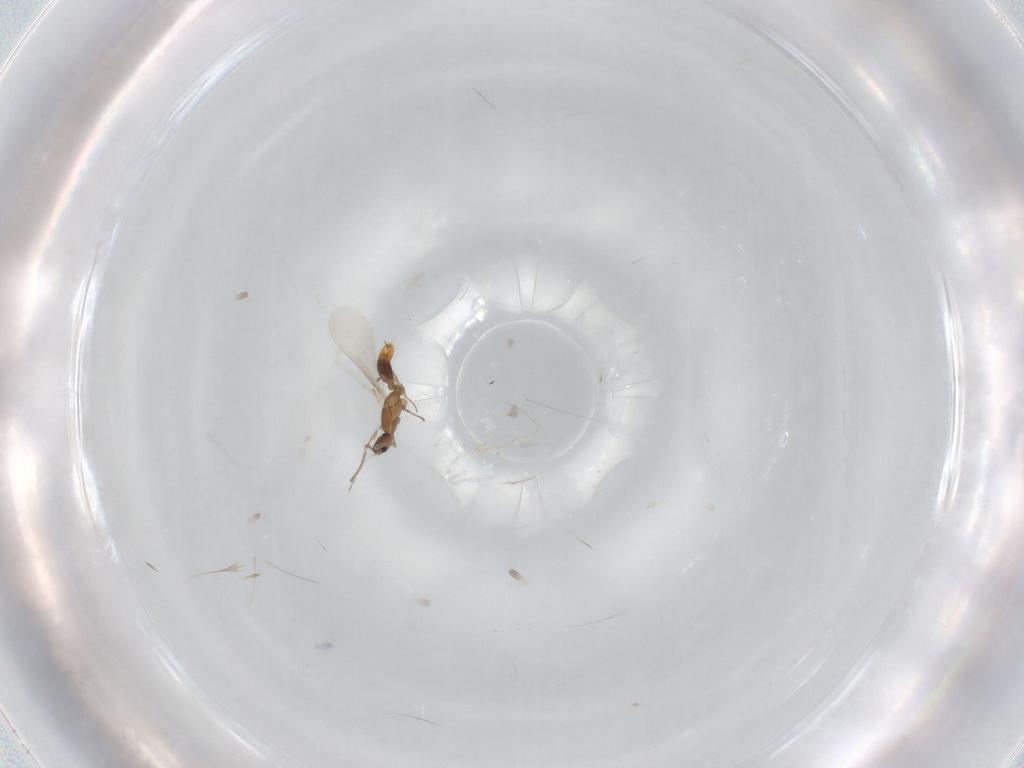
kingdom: Animalia
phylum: Arthropoda
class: Insecta
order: Hymenoptera
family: Formicidae
